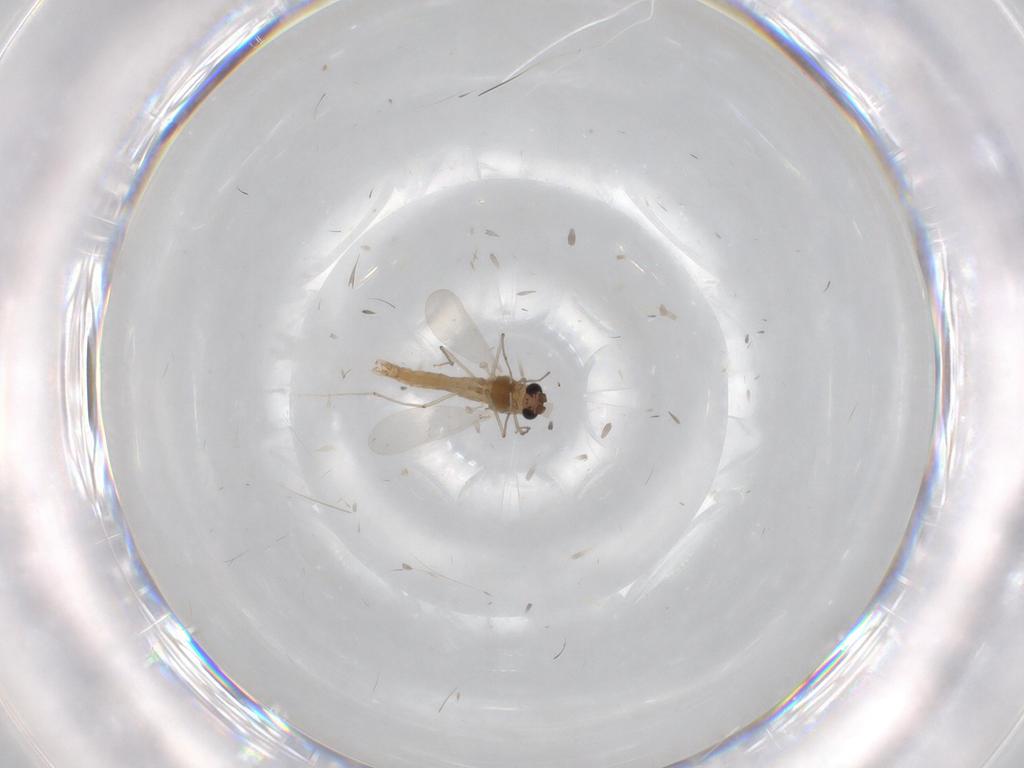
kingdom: Animalia
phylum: Arthropoda
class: Insecta
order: Diptera
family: Chironomidae
